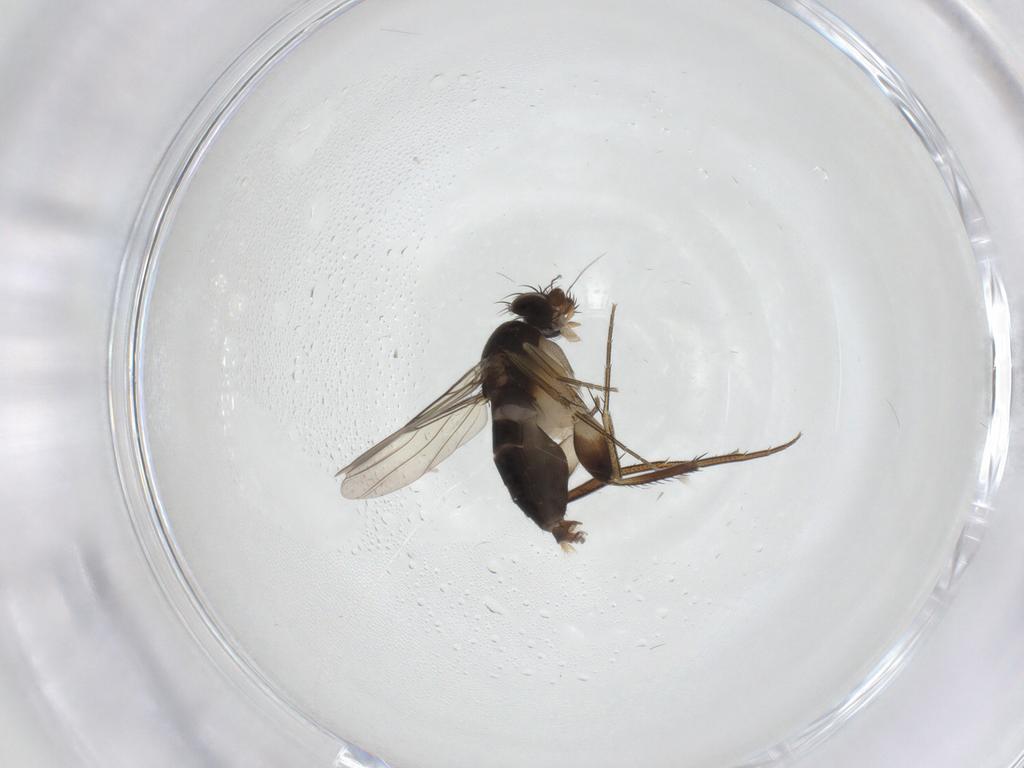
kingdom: Animalia
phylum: Arthropoda
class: Insecta
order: Diptera
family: Phoridae
